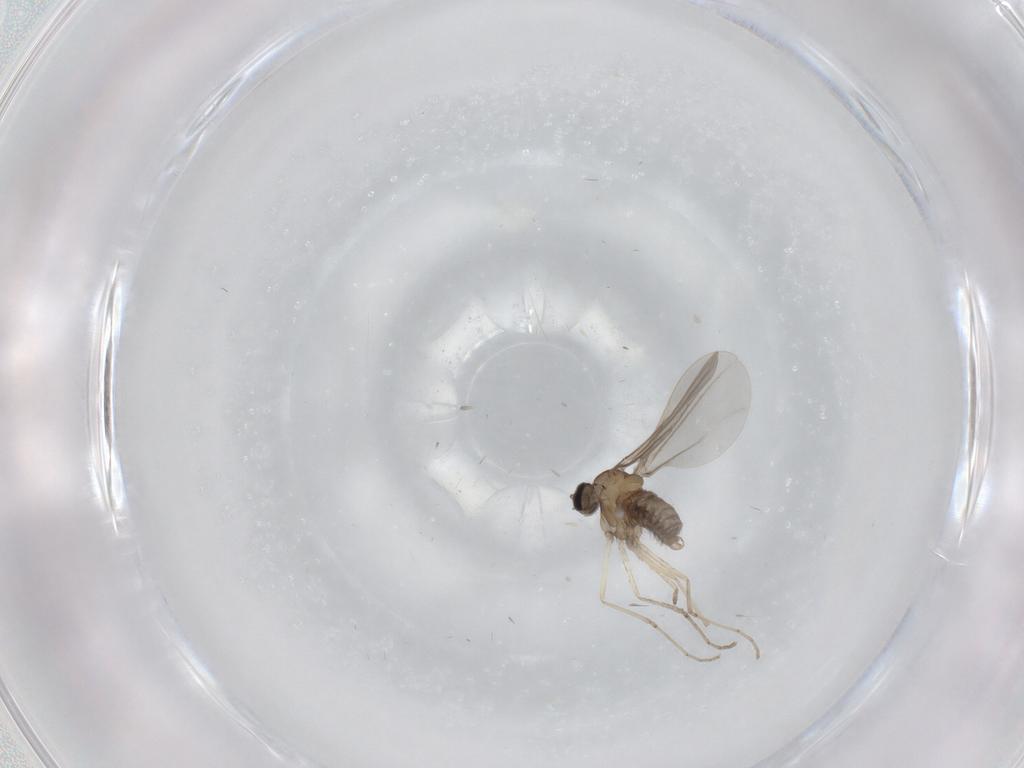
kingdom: Animalia
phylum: Arthropoda
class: Insecta
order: Diptera
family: Cecidomyiidae
